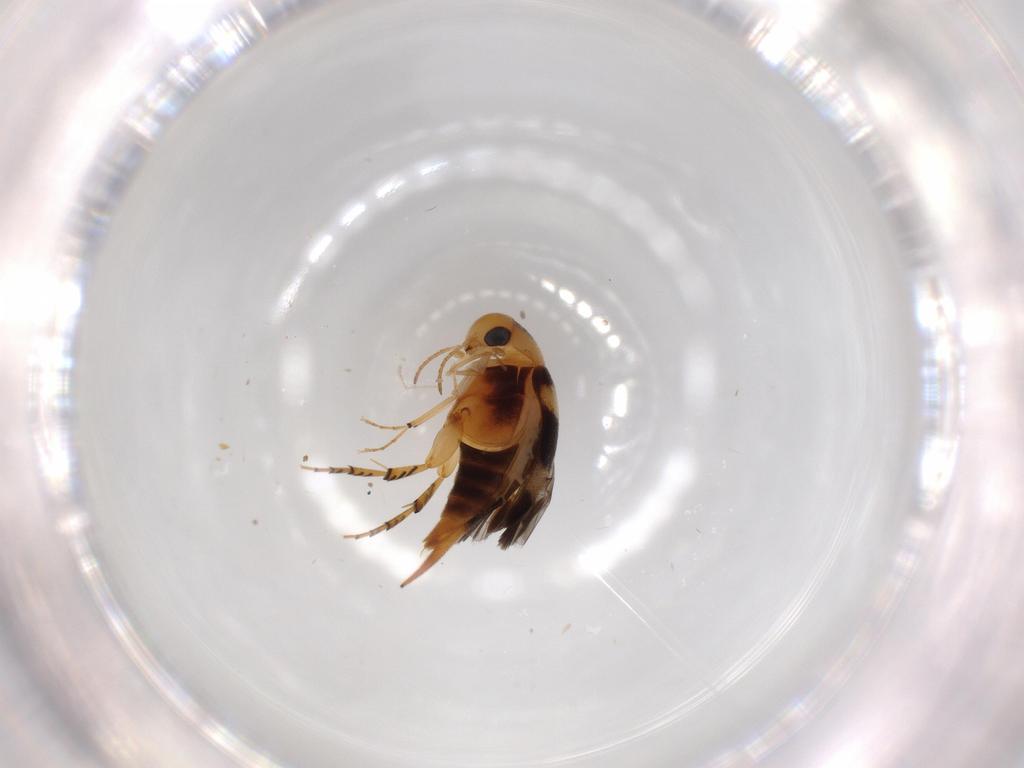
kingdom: Animalia
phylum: Arthropoda
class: Insecta
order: Coleoptera
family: Mordellidae
